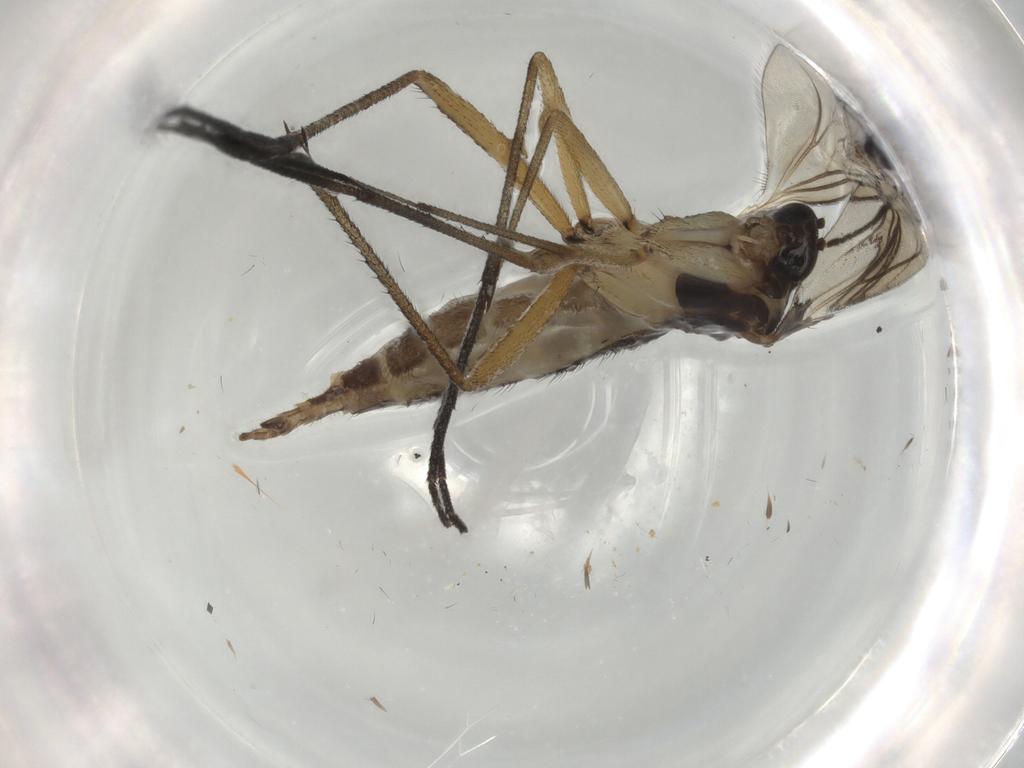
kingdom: Animalia
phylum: Arthropoda
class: Insecta
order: Diptera
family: Sciaridae
